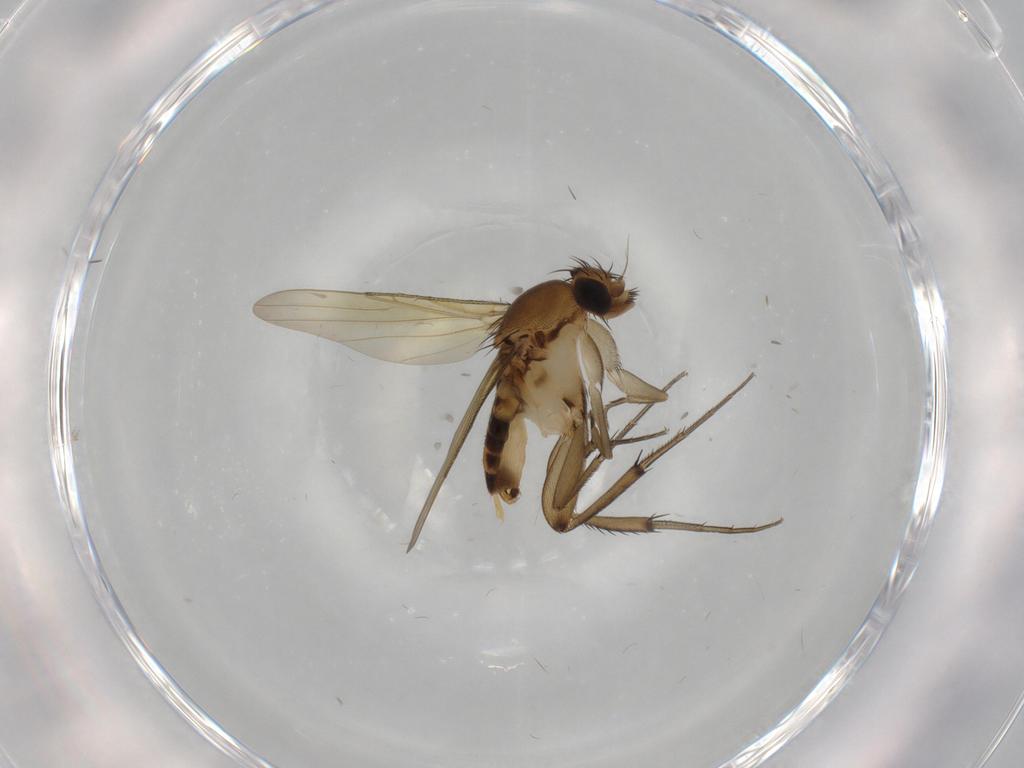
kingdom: Animalia
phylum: Arthropoda
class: Insecta
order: Diptera
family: Phoridae
